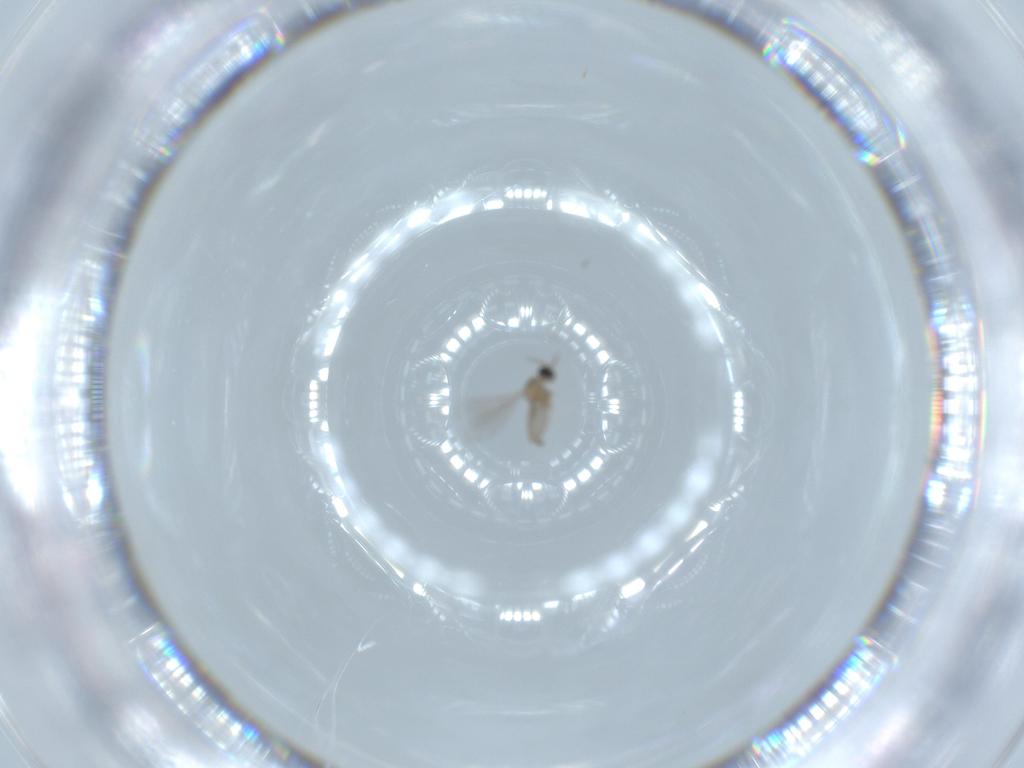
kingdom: Animalia
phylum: Arthropoda
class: Insecta
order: Diptera
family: Cecidomyiidae
